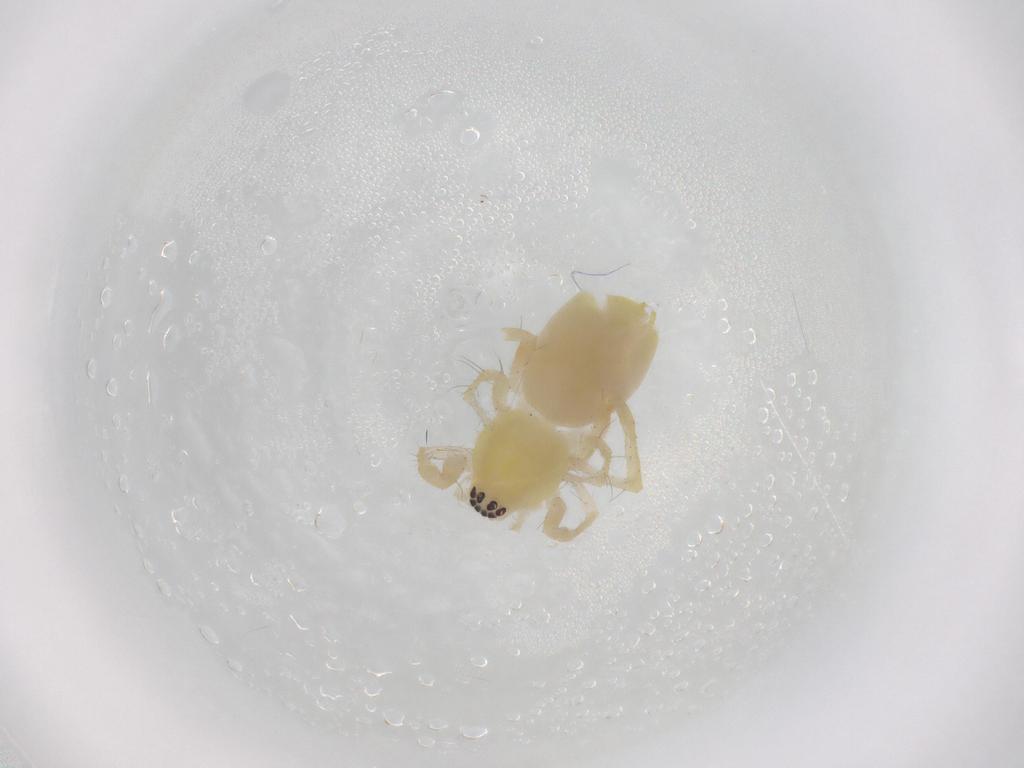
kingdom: Animalia
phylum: Arthropoda
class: Arachnida
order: Araneae
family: Anyphaenidae
